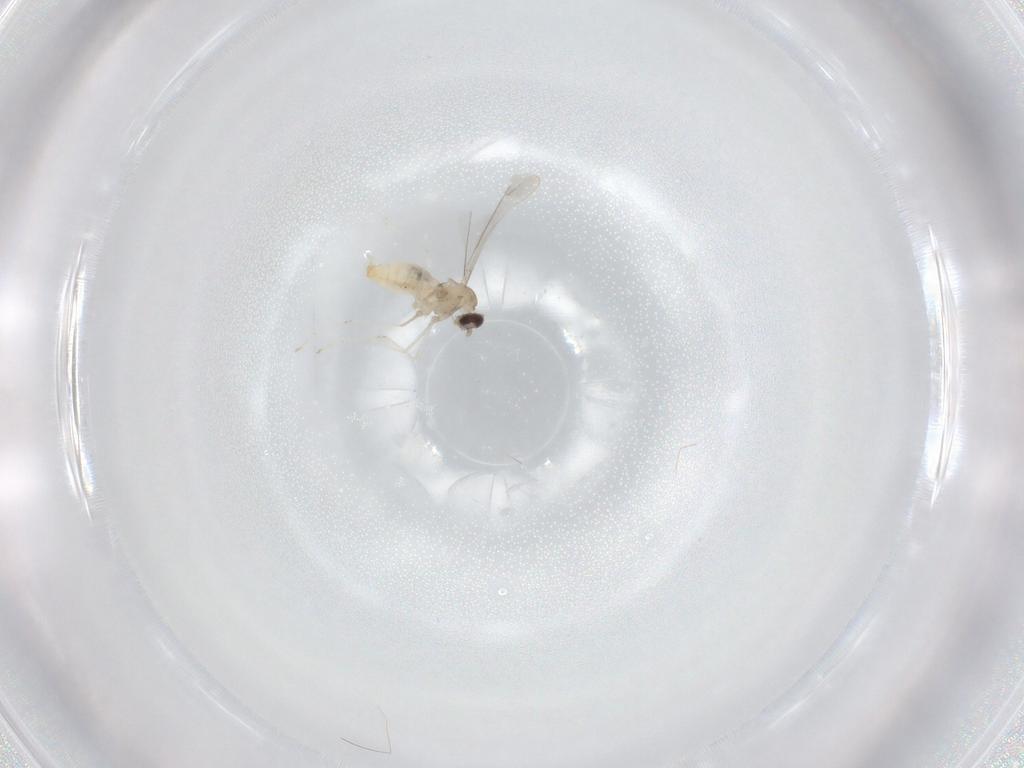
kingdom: Animalia
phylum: Arthropoda
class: Insecta
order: Diptera
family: Cecidomyiidae
